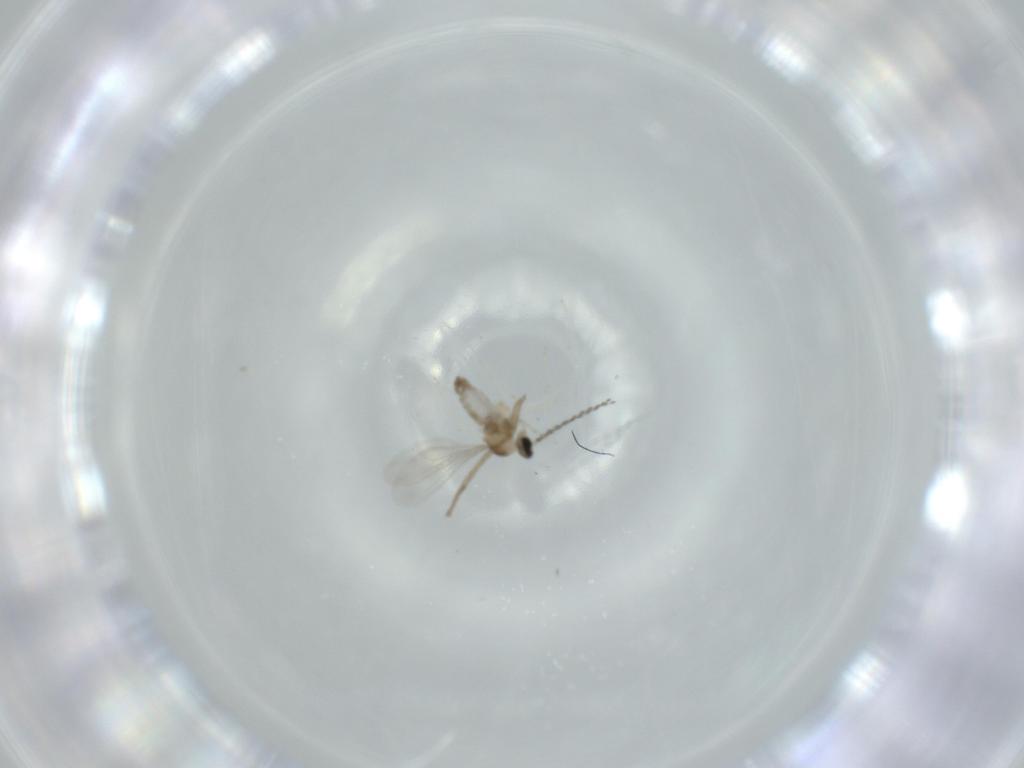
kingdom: Animalia
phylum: Arthropoda
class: Insecta
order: Diptera
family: Cecidomyiidae
